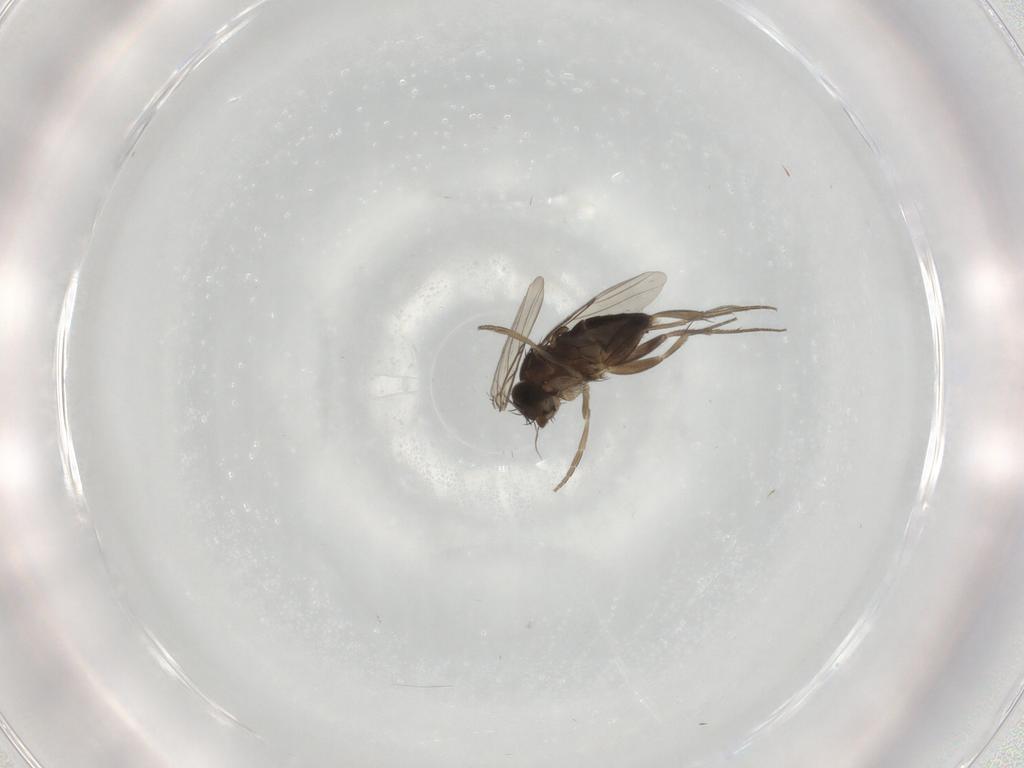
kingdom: Animalia
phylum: Arthropoda
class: Insecta
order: Diptera
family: Phoridae
